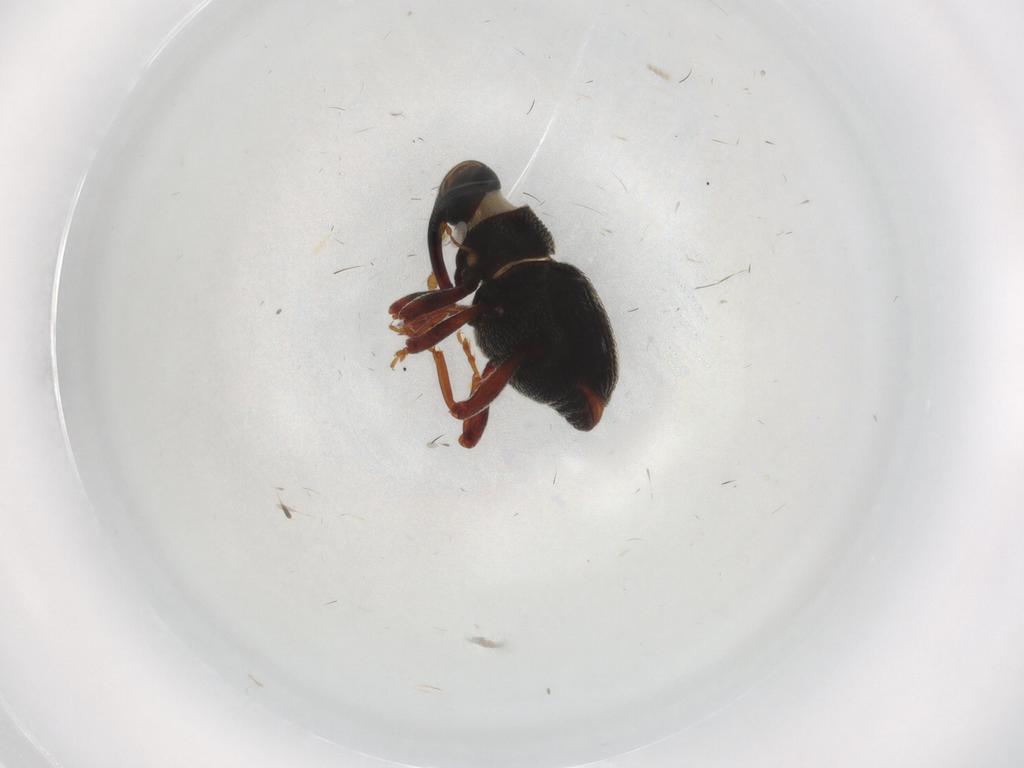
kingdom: Animalia
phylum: Arthropoda
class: Insecta
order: Coleoptera
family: Curculionidae
